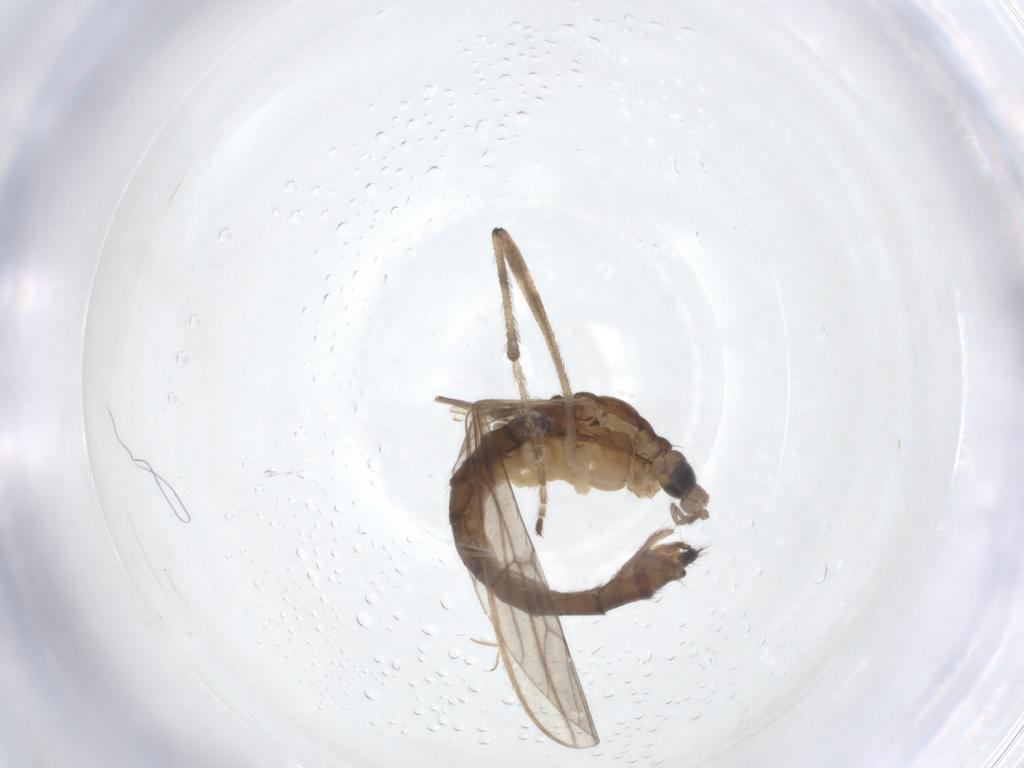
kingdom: Animalia
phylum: Arthropoda
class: Insecta
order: Diptera
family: Limoniidae
